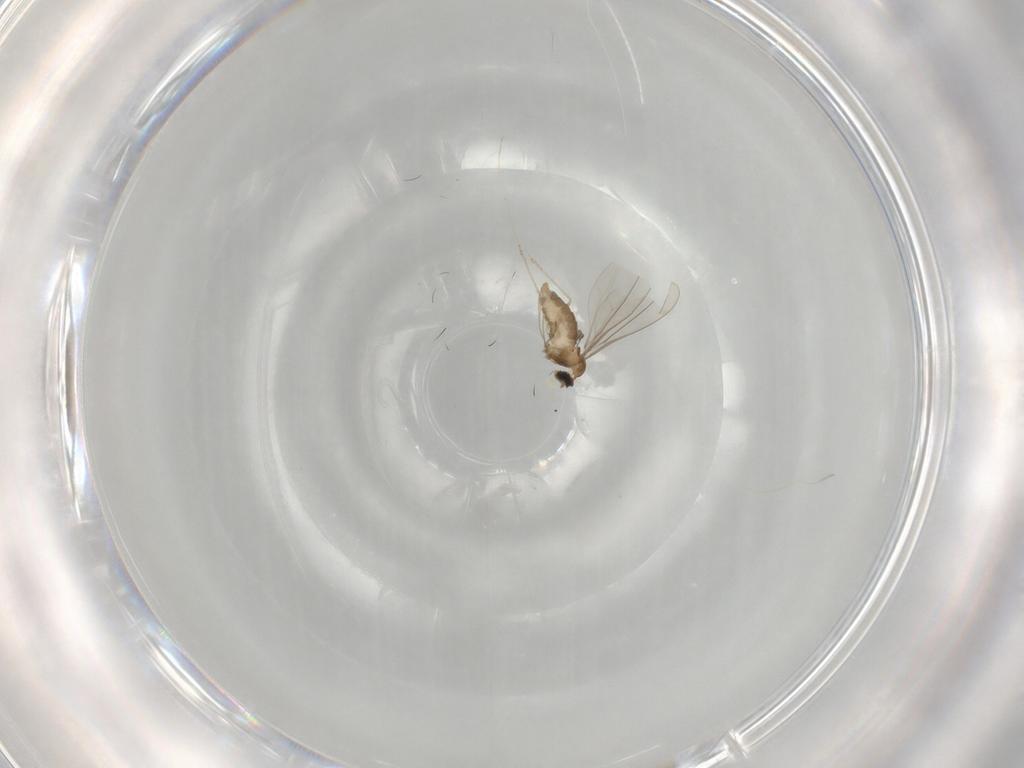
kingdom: Animalia
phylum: Arthropoda
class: Insecta
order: Diptera
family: Cecidomyiidae
